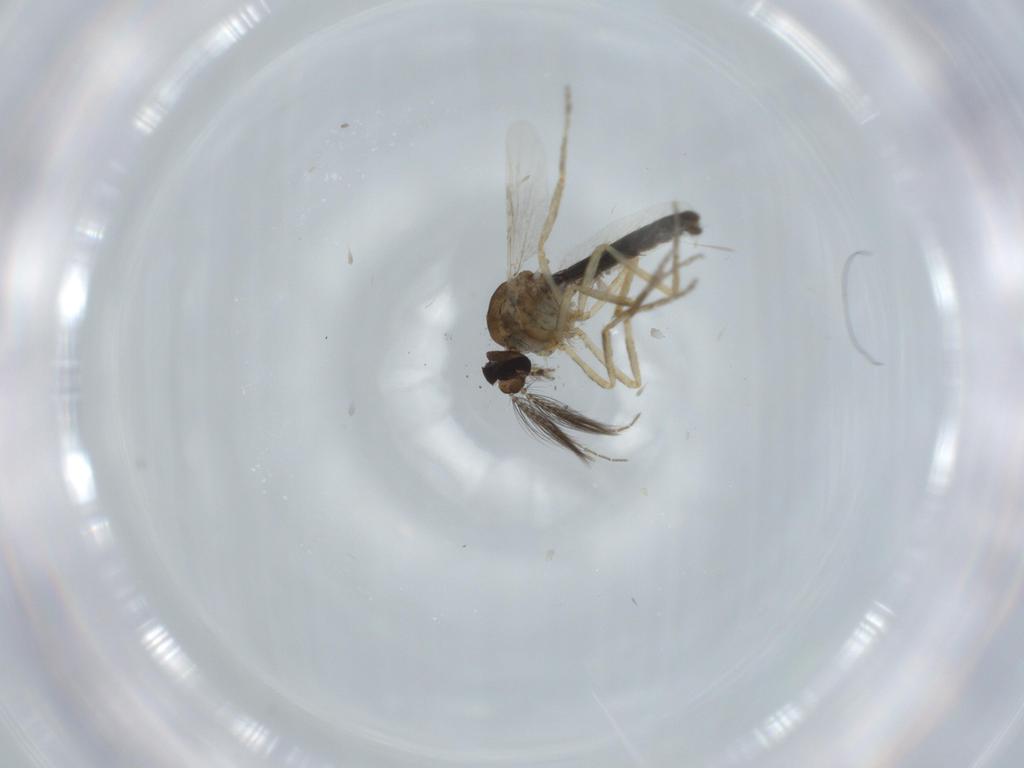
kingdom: Animalia
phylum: Arthropoda
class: Insecta
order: Diptera
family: Ceratopogonidae
